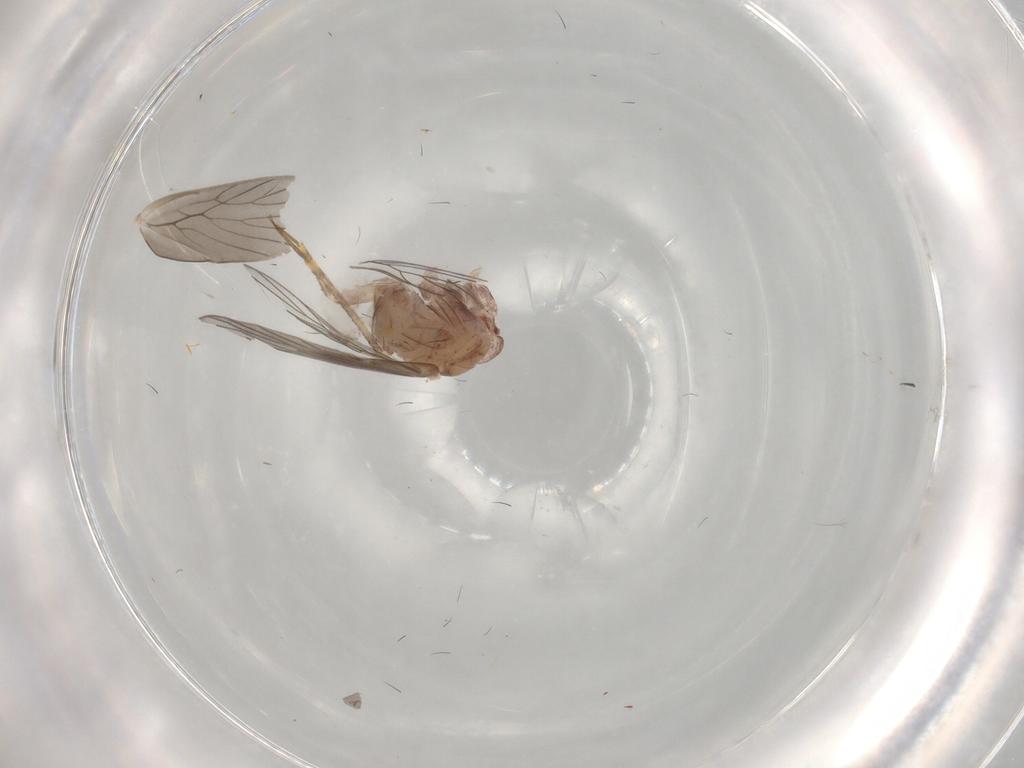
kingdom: Animalia
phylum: Arthropoda
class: Insecta
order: Psocodea
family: Lepidopsocidae
